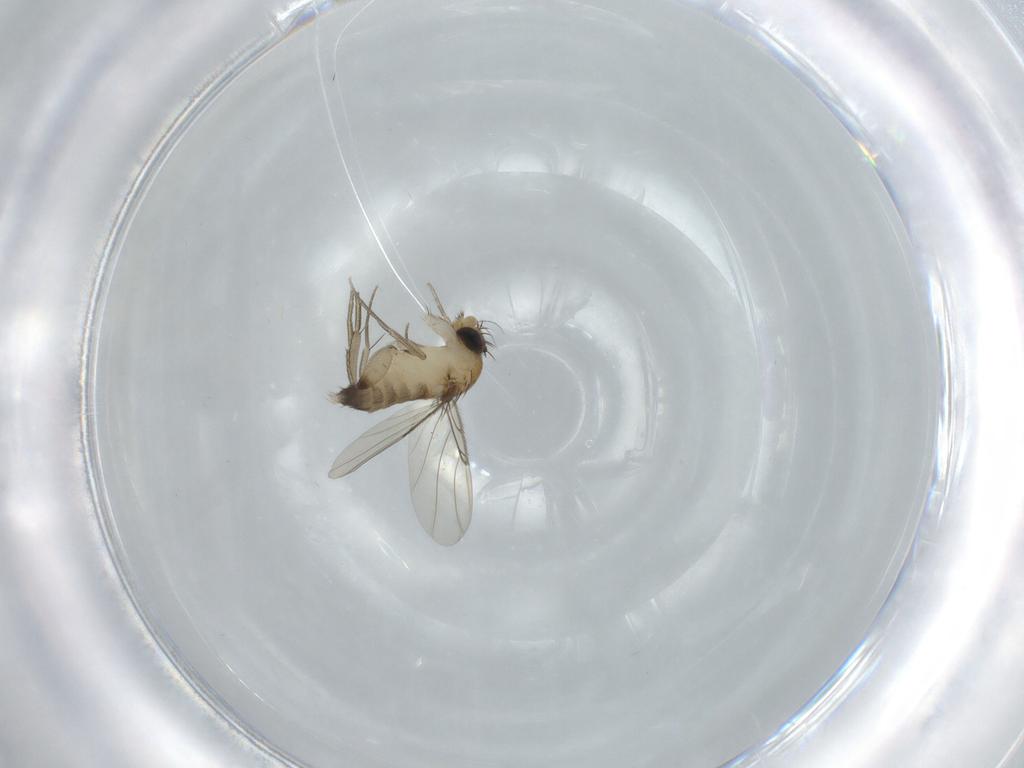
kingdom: Animalia
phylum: Arthropoda
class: Insecta
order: Diptera
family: Phoridae
